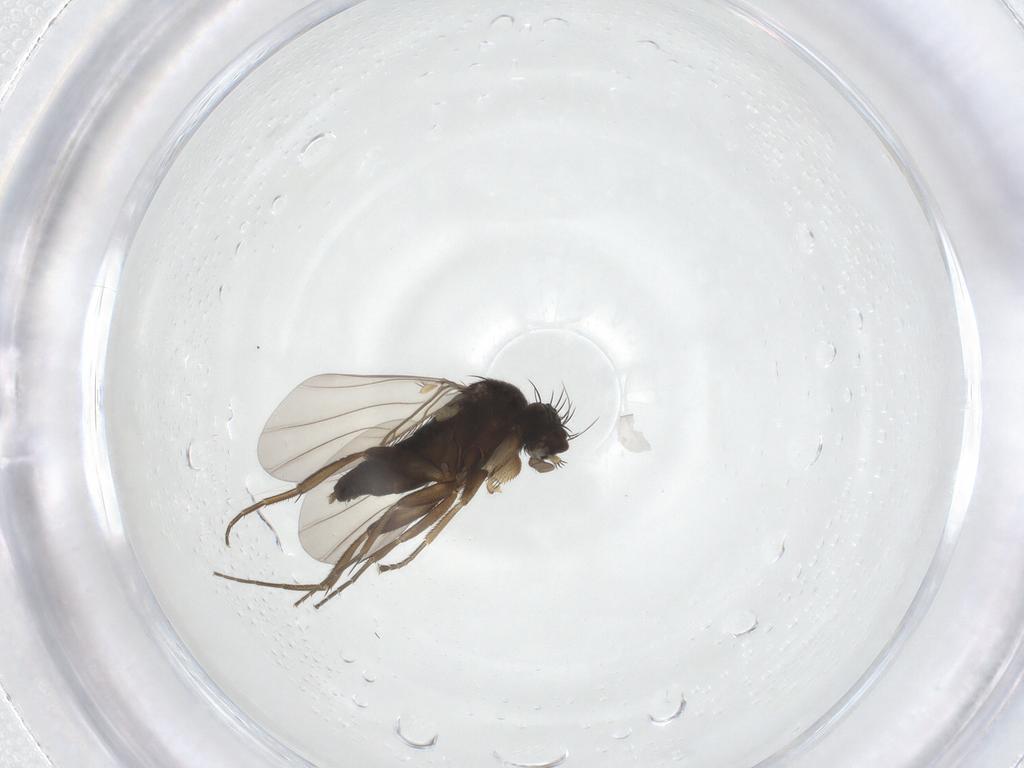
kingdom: Animalia
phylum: Arthropoda
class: Insecta
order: Diptera
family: Phoridae
